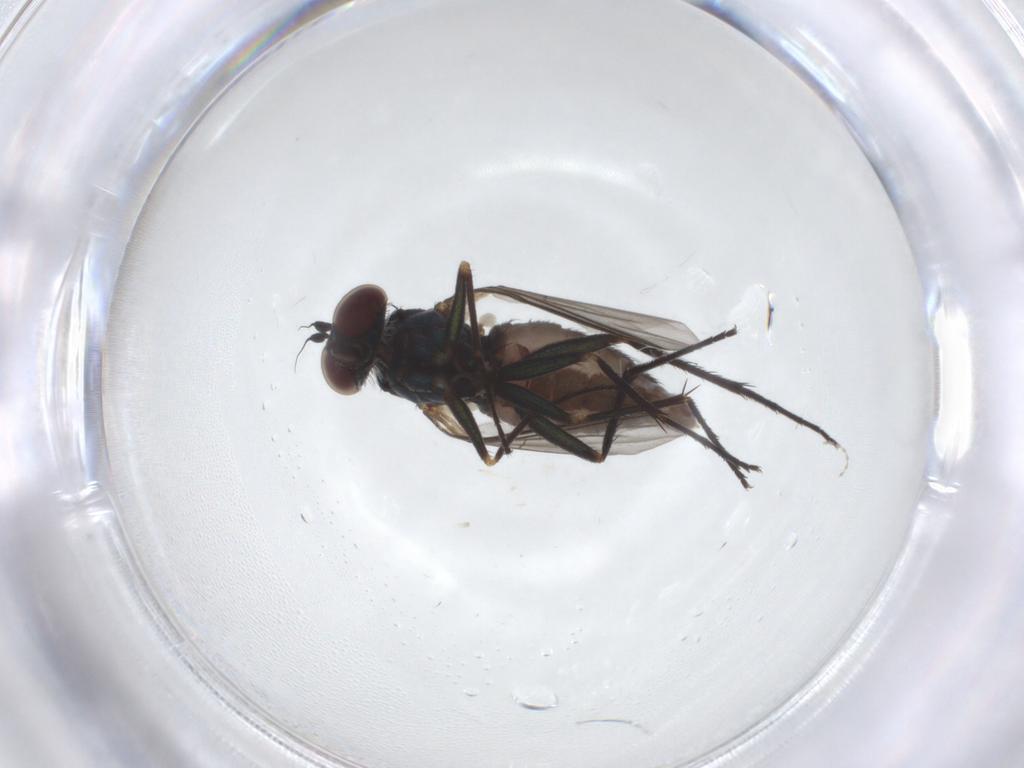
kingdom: Animalia
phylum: Arthropoda
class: Insecta
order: Diptera
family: Dolichopodidae
